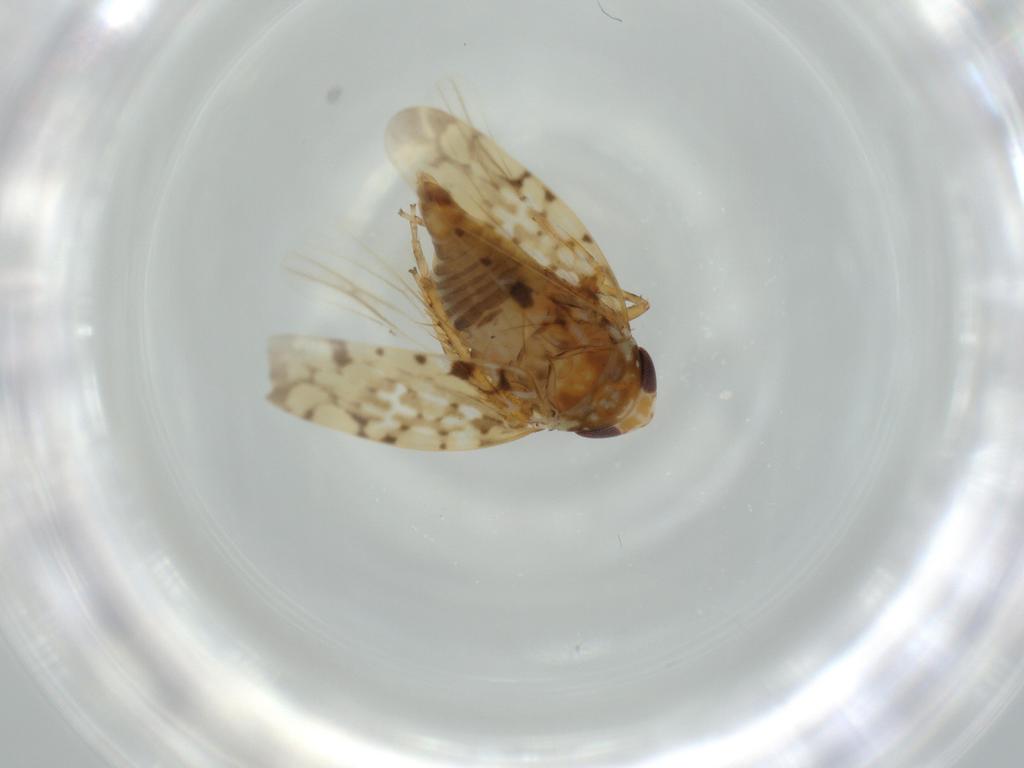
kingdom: Animalia
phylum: Arthropoda
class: Insecta
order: Hemiptera
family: Cicadellidae
